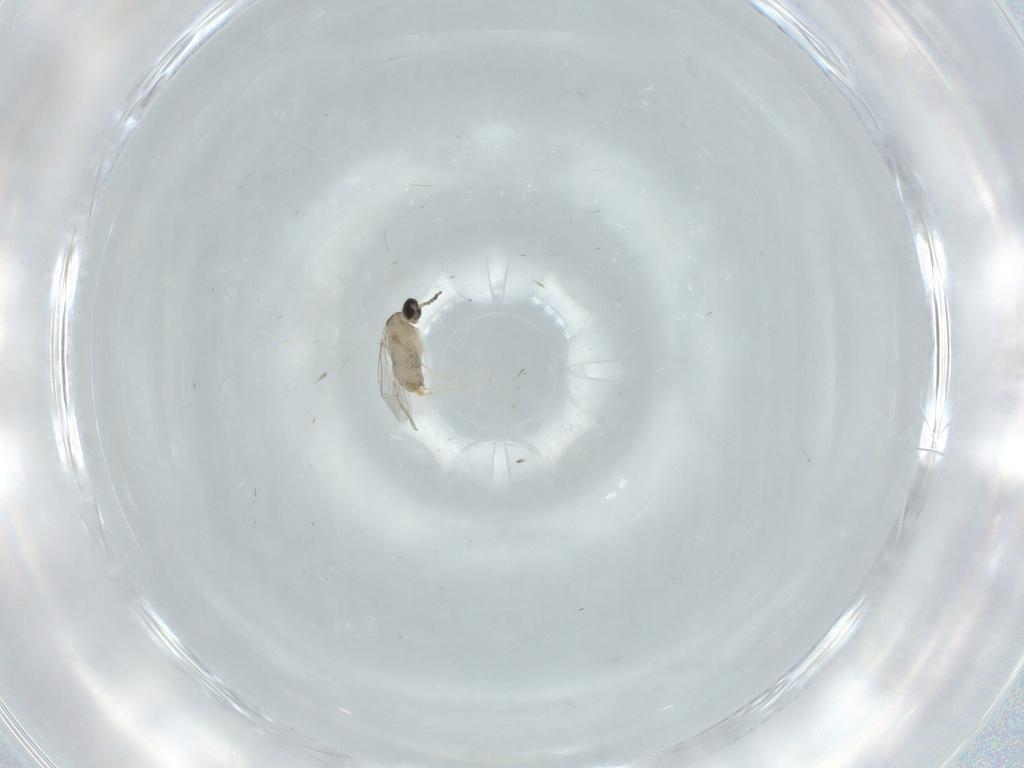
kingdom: Animalia
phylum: Arthropoda
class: Insecta
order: Diptera
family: Cecidomyiidae
